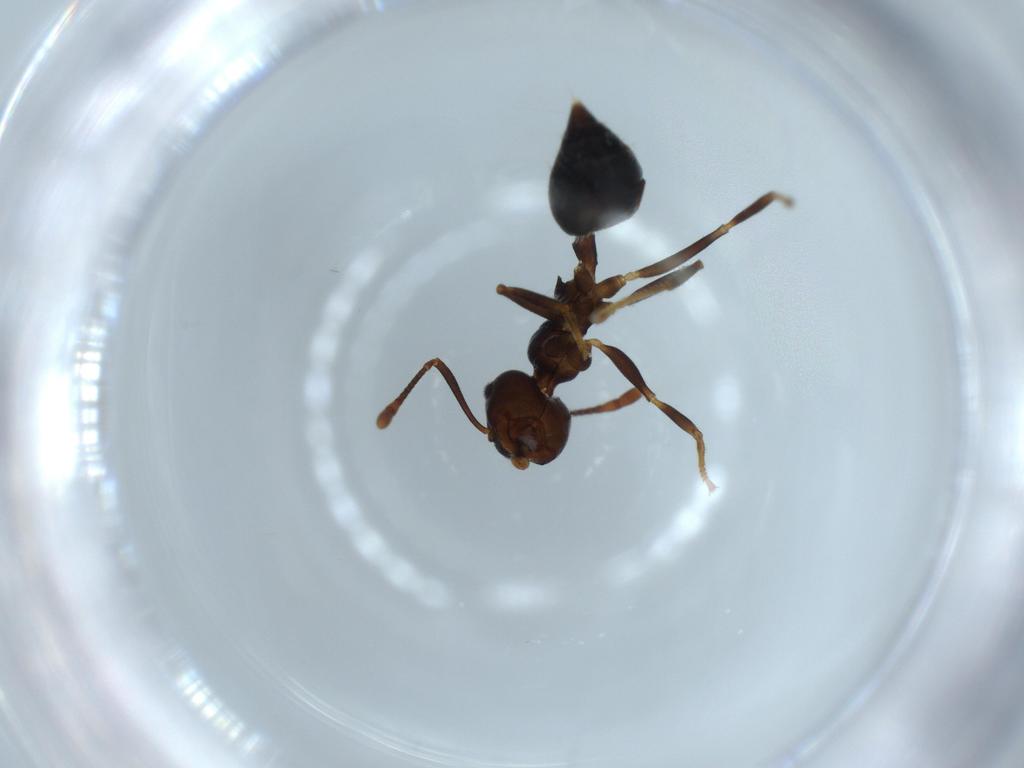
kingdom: Animalia
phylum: Arthropoda
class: Insecta
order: Hymenoptera
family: Formicidae
